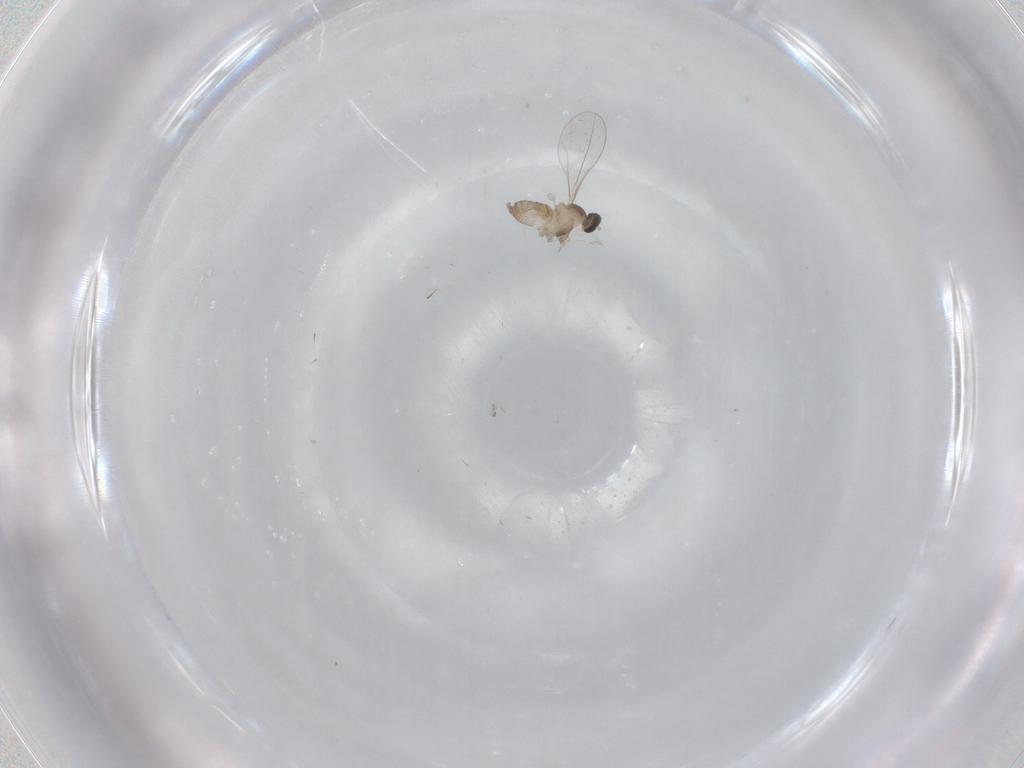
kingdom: Animalia
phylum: Arthropoda
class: Insecta
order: Diptera
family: Cecidomyiidae
